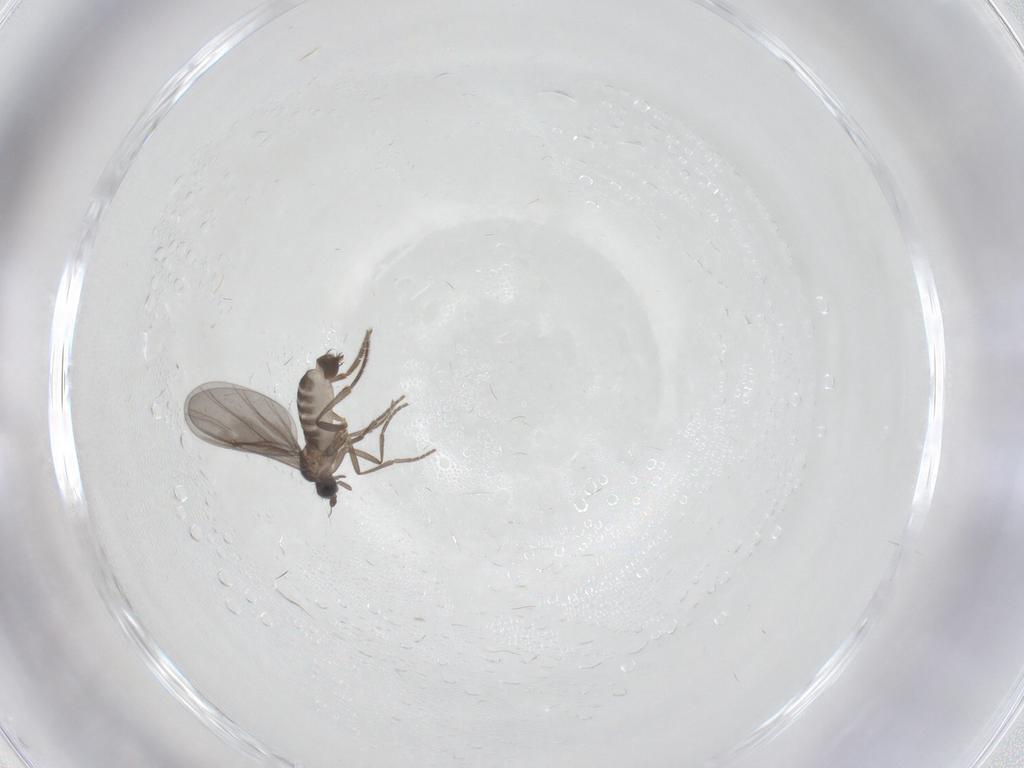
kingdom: Animalia
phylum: Arthropoda
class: Insecta
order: Diptera
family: Phoridae
